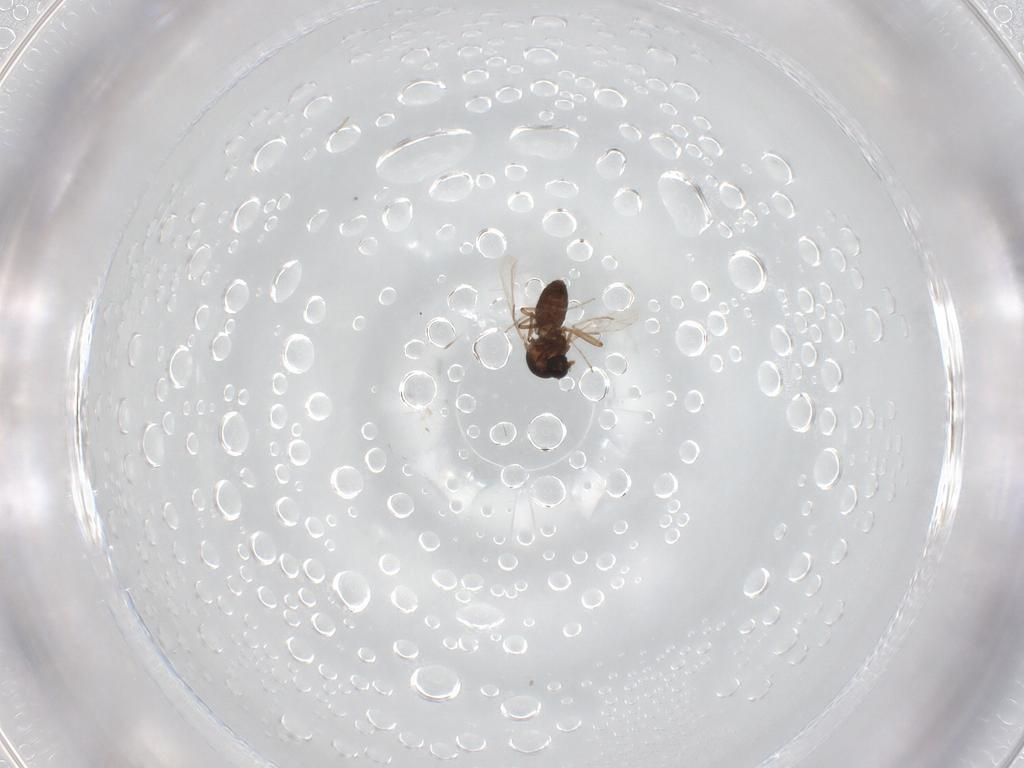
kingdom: Animalia
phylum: Arthropoda
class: Insecta
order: Diptera
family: Ceratopogonidae
